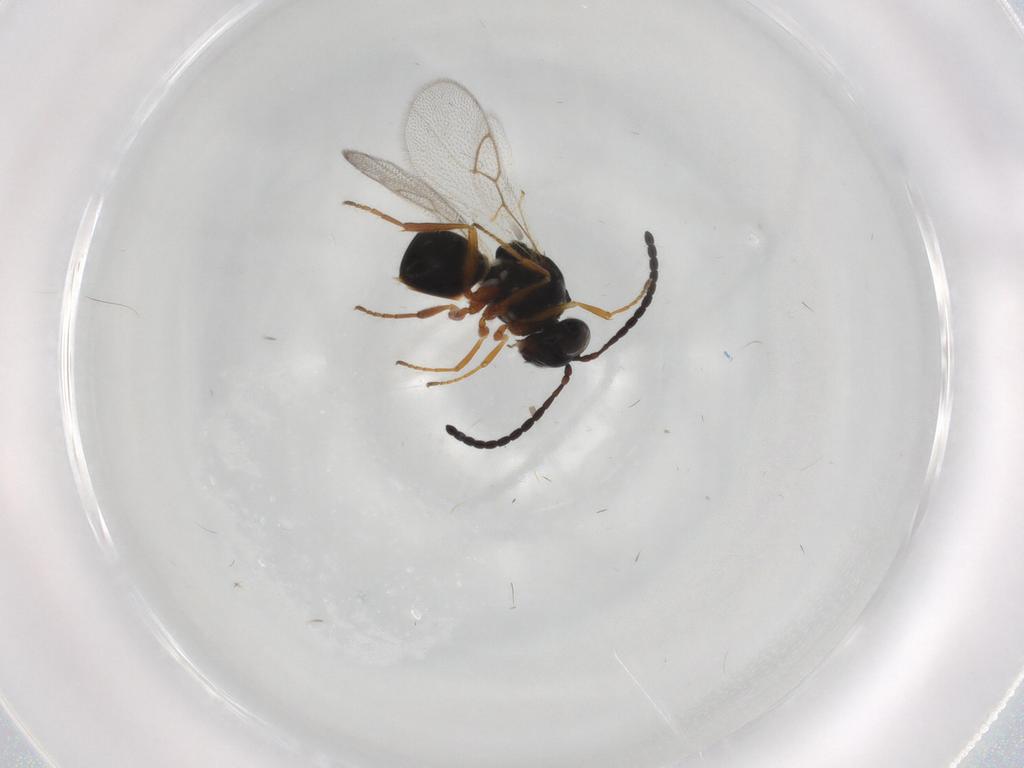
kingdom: Animalia
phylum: Arthropoda
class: Insecta
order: Hymenoptera
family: Figitidae
